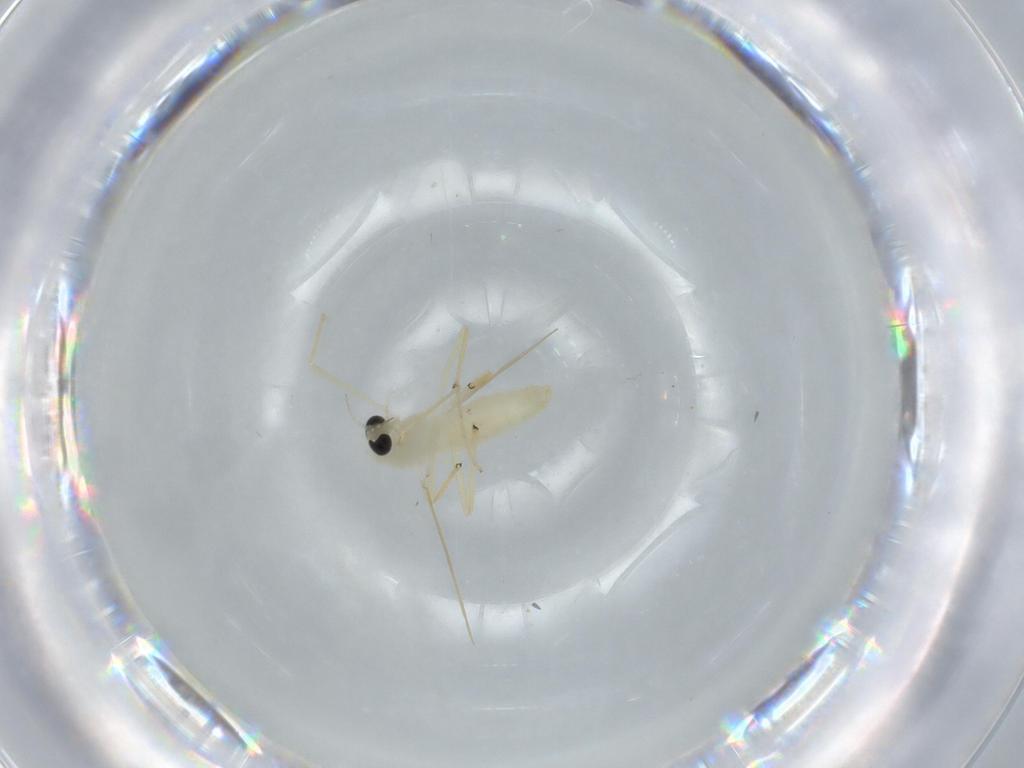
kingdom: Animalia
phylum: Arthropoda
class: Insecta
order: Diptera
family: Chironomidae
